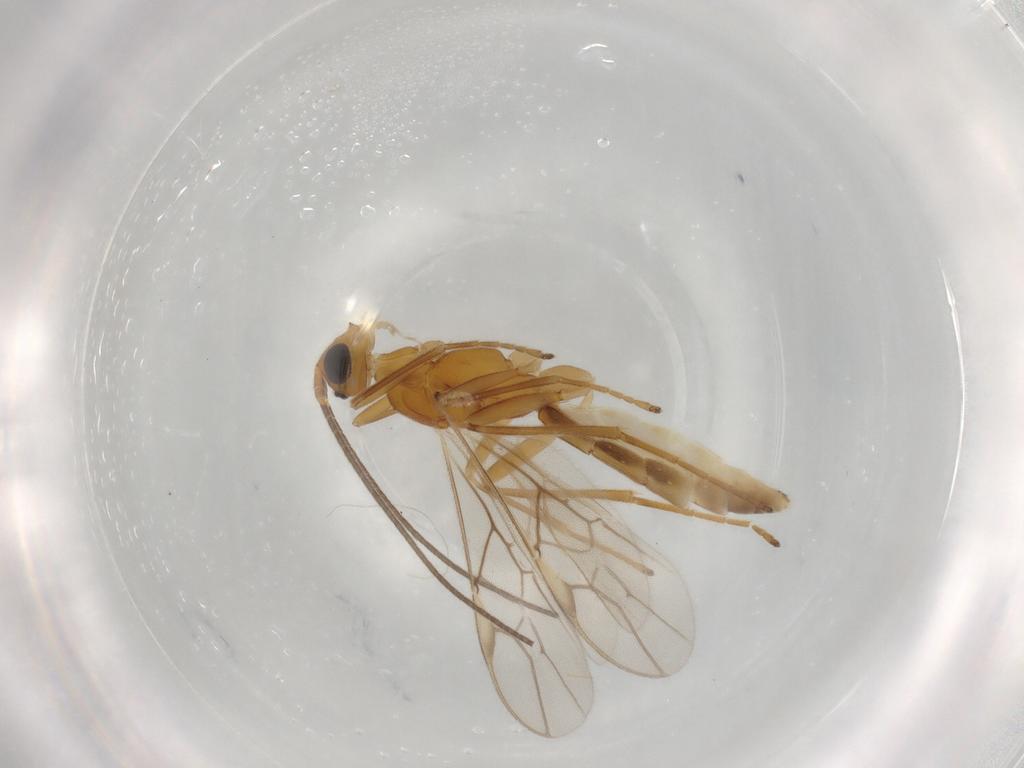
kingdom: Animalia
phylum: Arthropoda
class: Insecta
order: Hymenoptera
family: Braconidae
